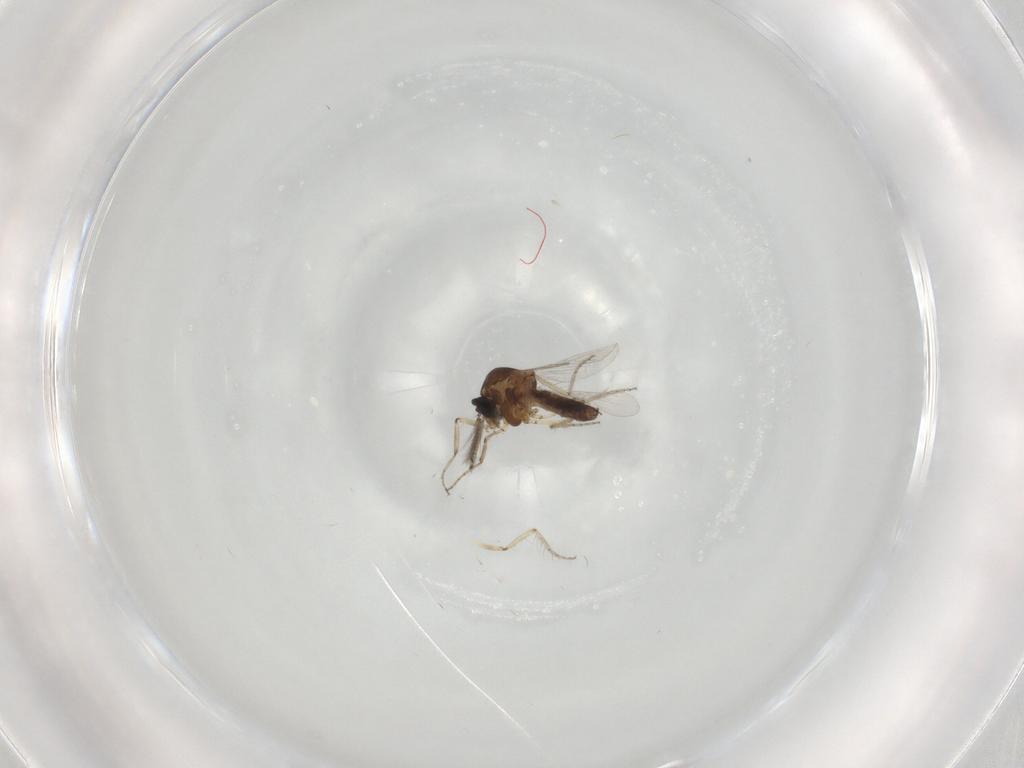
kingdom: Animalia
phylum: Arthropoda
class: Insecta
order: Diptera
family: Ceratopogonidae
